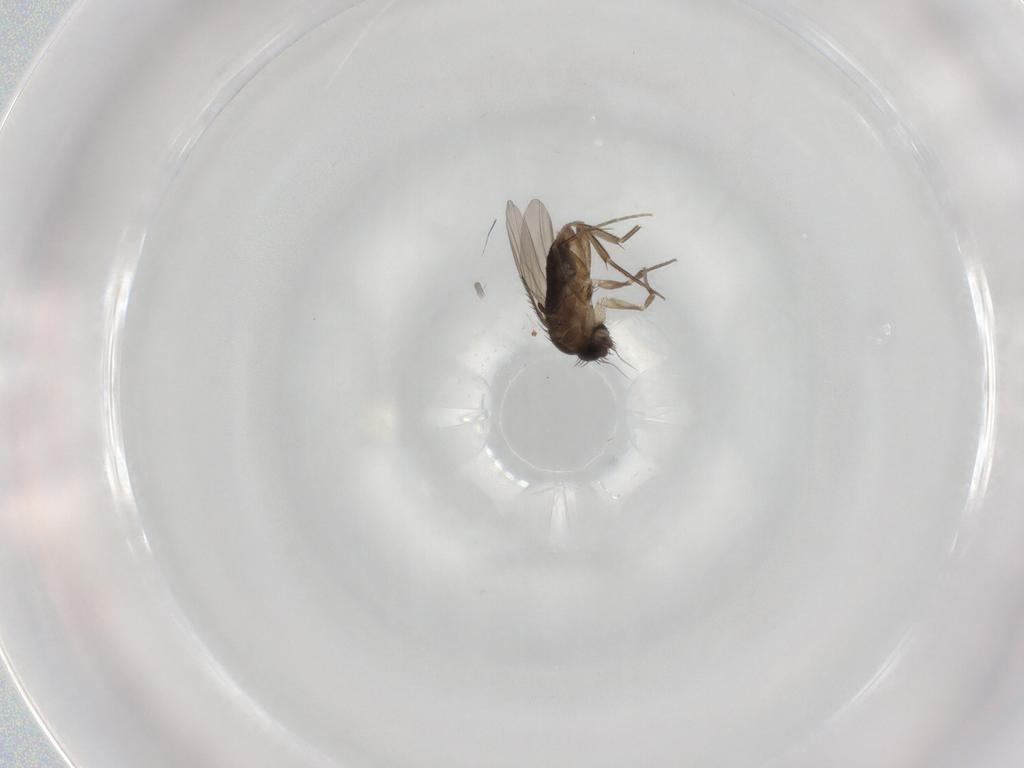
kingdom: Animalia
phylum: Arthropoda
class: Insecta
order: Diptera
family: Phoridae
